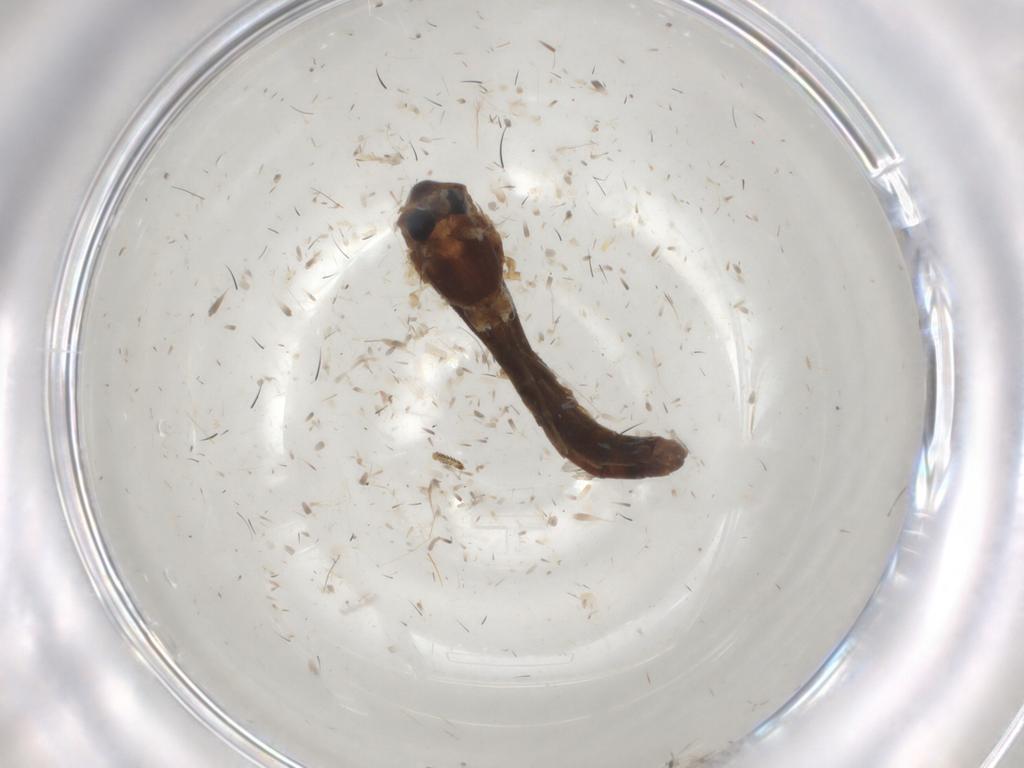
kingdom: Animalia
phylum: Arthropoda
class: Insecta
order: Diptera
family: Chironomidae
